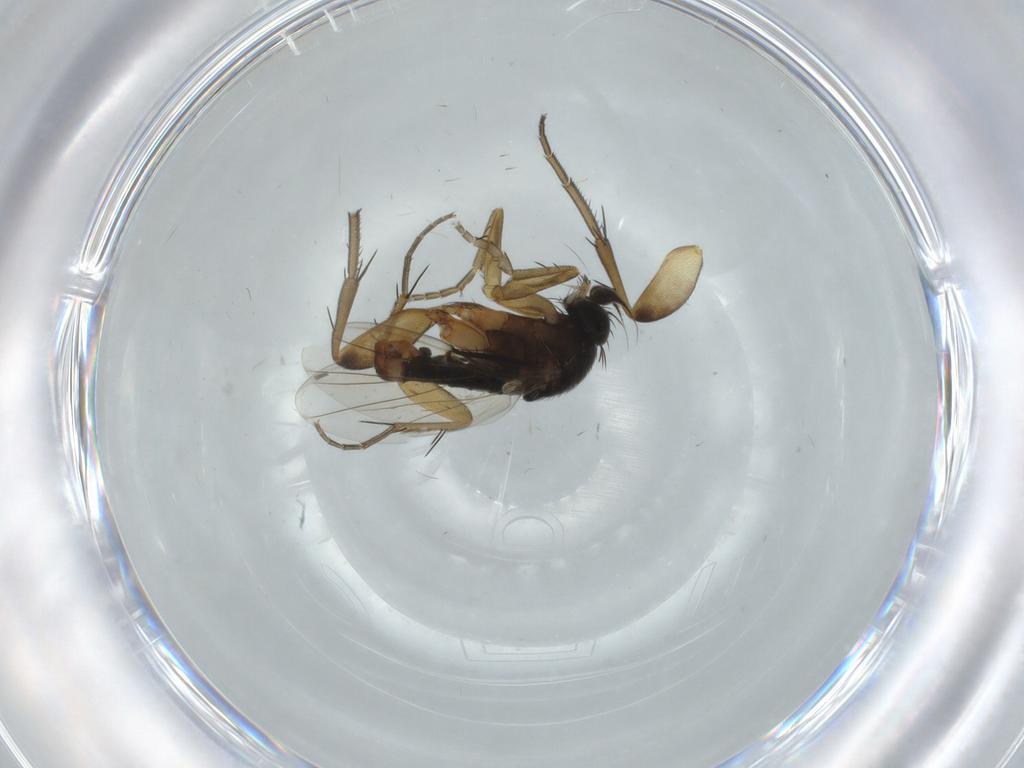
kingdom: Animalia
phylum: Arthropoda
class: Insecta
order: Diptera
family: Phoridae
